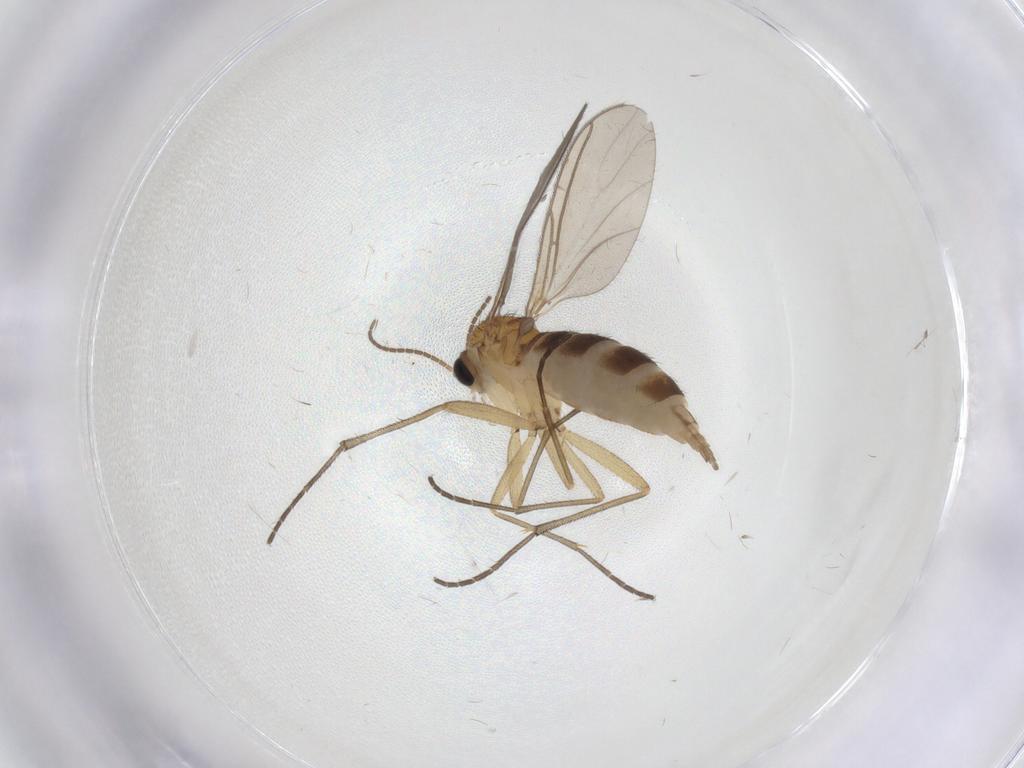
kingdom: Animalia
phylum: Arthropoda
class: Insecta
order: Diptera
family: Sciaridae
